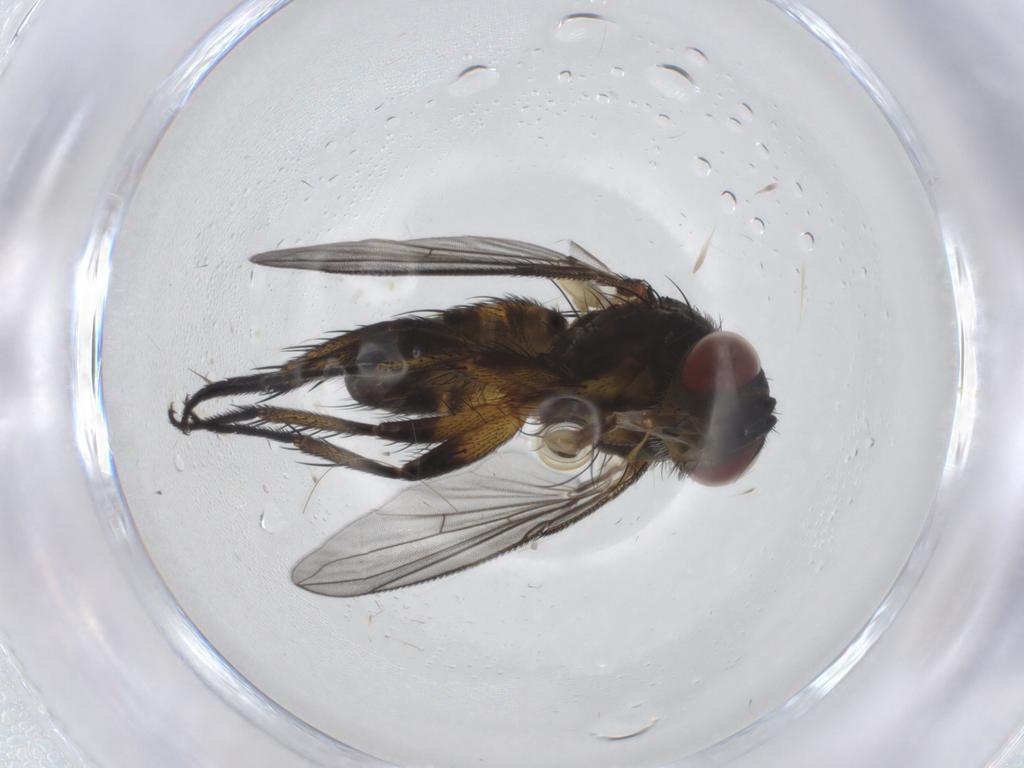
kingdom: Animalia
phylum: Arthropoda
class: Insecta
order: Diptera
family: Tachinidae
